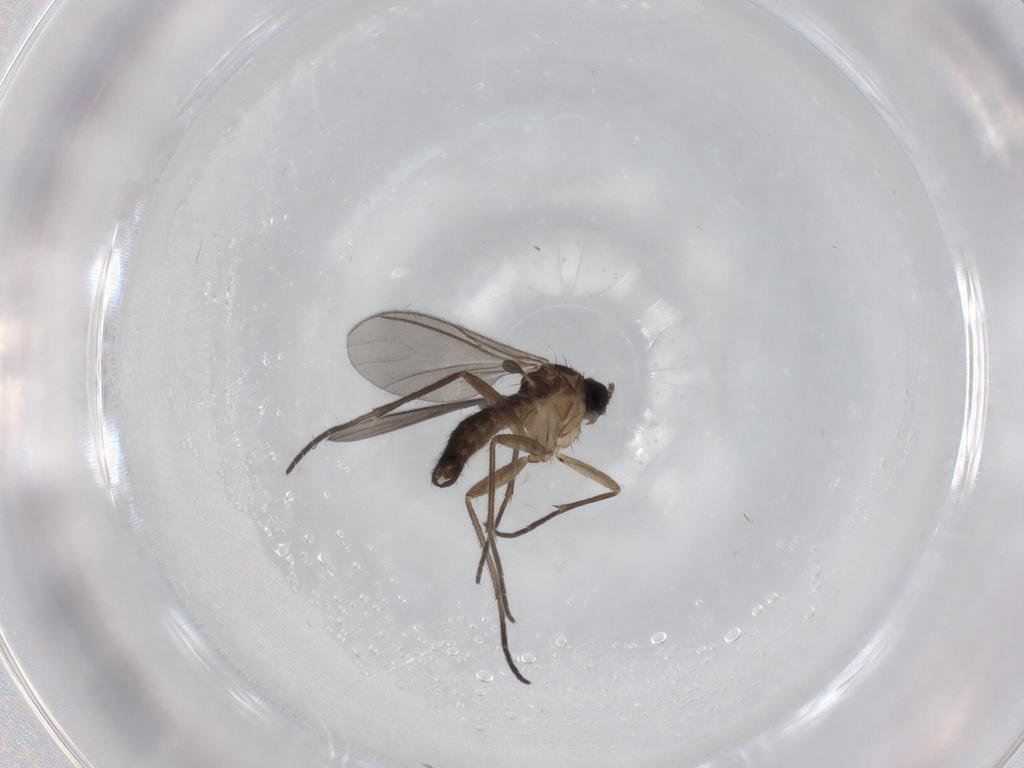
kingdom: Animalia
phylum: Arthropoda
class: Insecta
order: Diptera
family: Sciaridae
